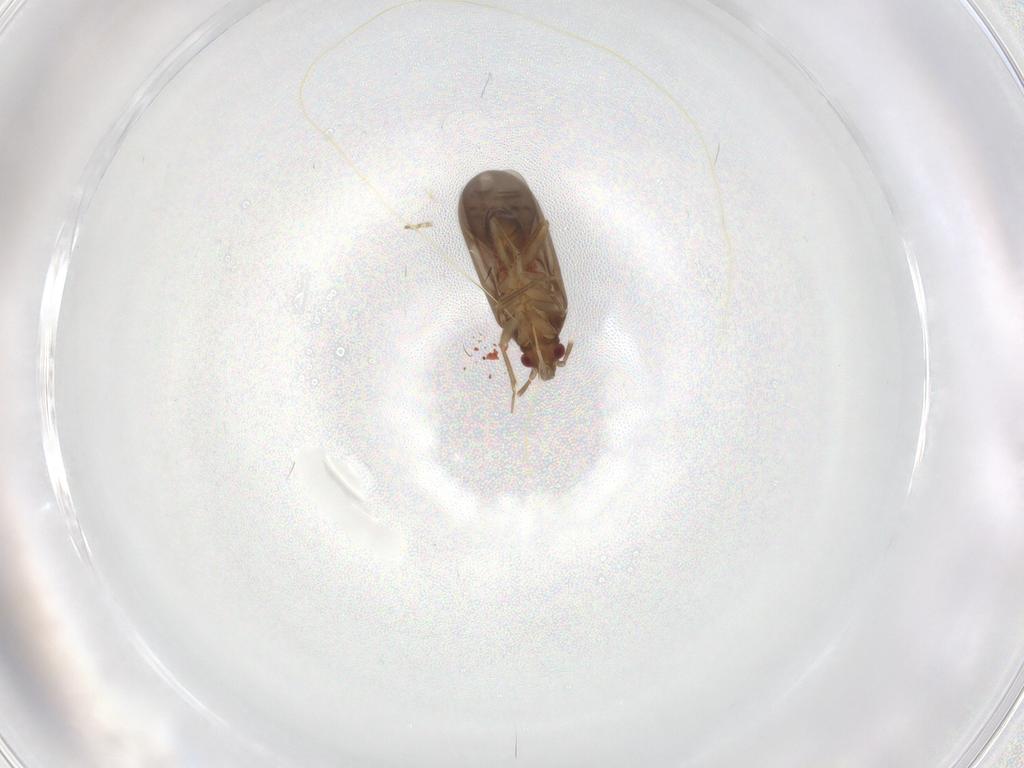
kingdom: Animalia
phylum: Arthropoda
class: Insecta
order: Hemiptera
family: Ceratocombidae
